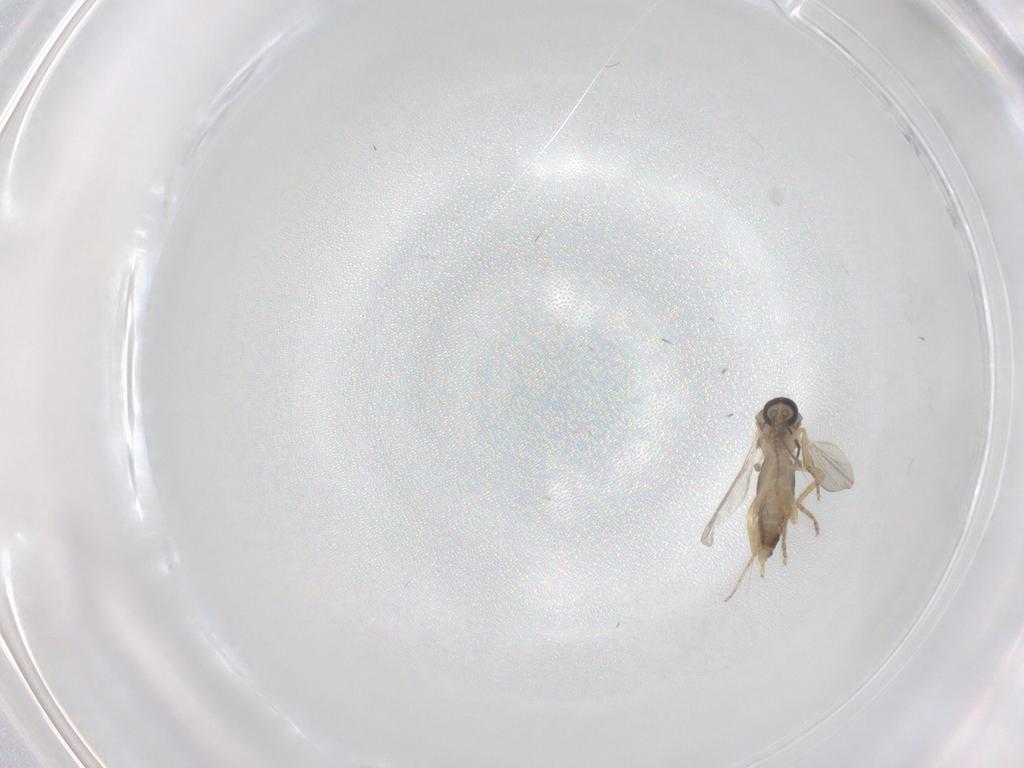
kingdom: Animalia
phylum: Arthropoda
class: Insecta
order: Diptera
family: Ceratopogonidae
